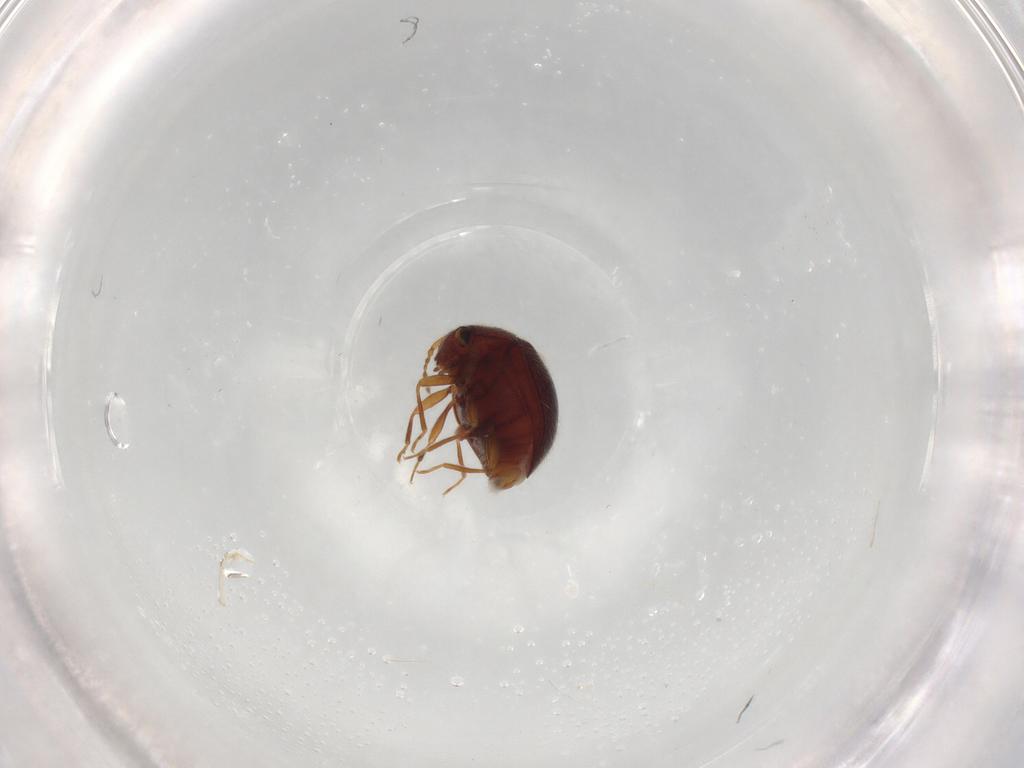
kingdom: Animalia
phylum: Arthropoda
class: Insecta
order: Coleoptera
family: Anamorphidae
